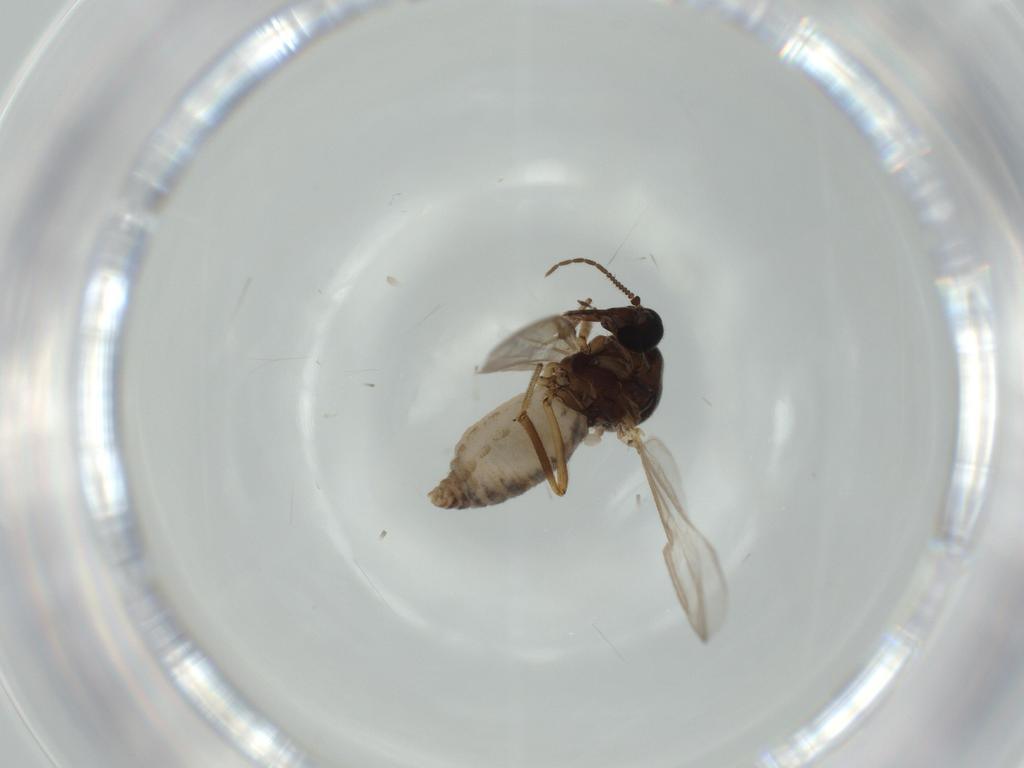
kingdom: Animalia
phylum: Arthropoda
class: Insecta
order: Diptera
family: Ceratopogonidae
